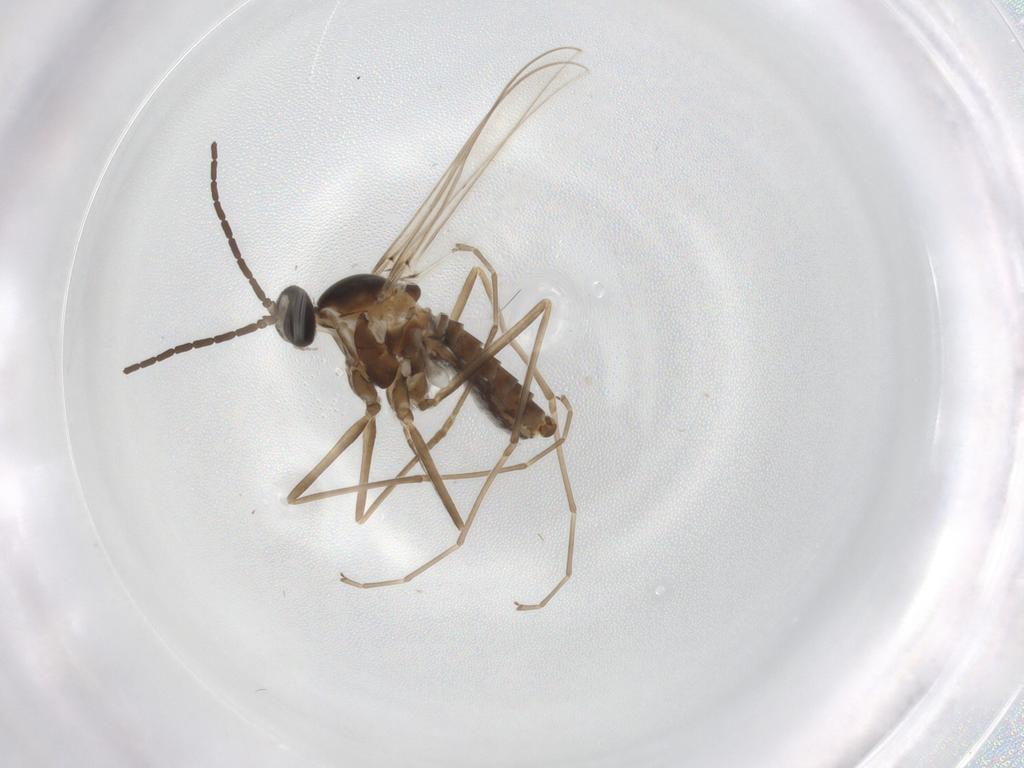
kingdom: Animalia
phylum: Arthropoda
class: Insecta
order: Diptera
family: Cecidomyiidae
